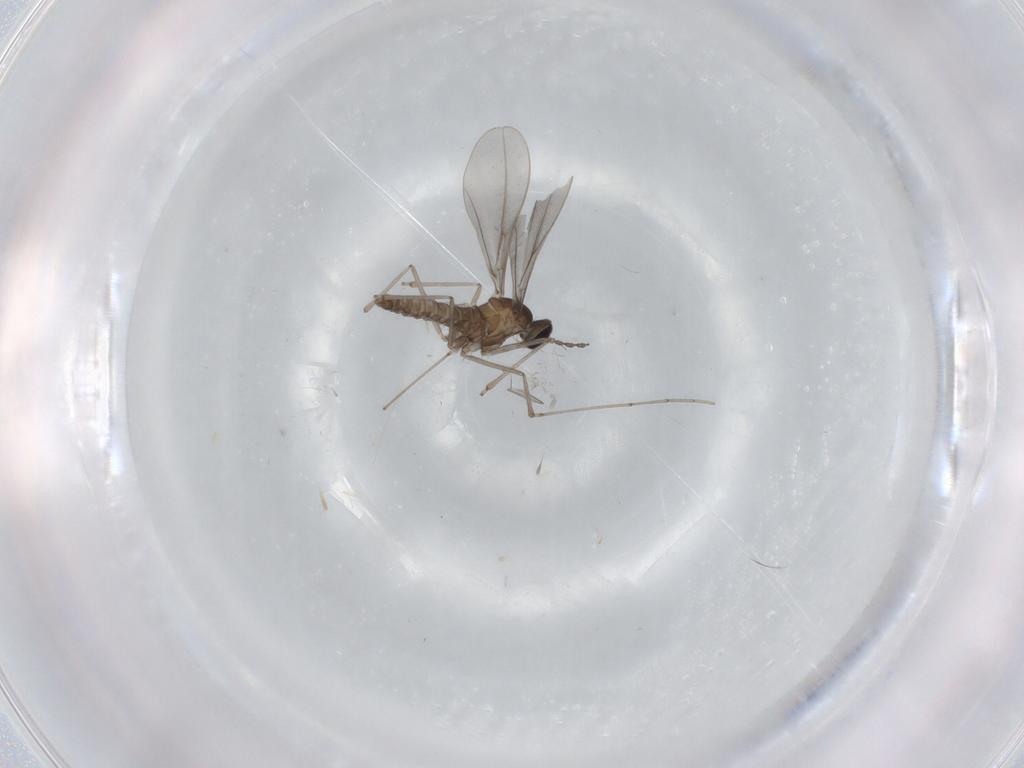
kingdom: Animalia
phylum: Arthropoda
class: Insecta
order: Diptera
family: Cecidomyiidae
